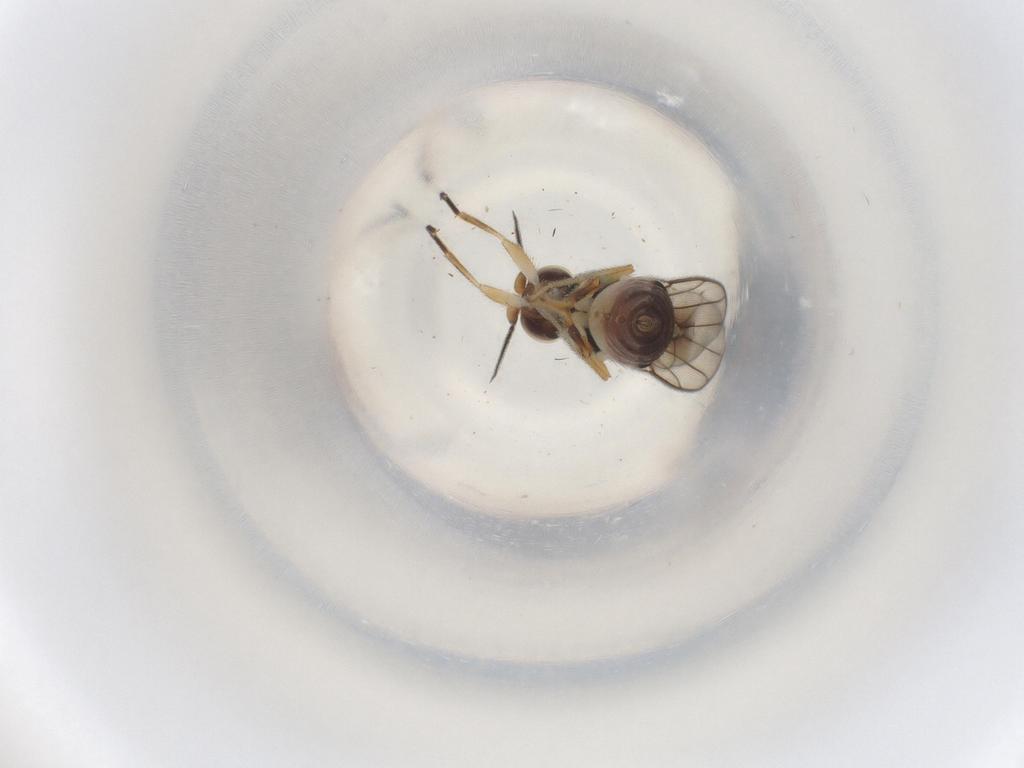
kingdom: Animalia
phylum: Arthropoda
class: Insecta
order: Diptera
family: Chloropidae
